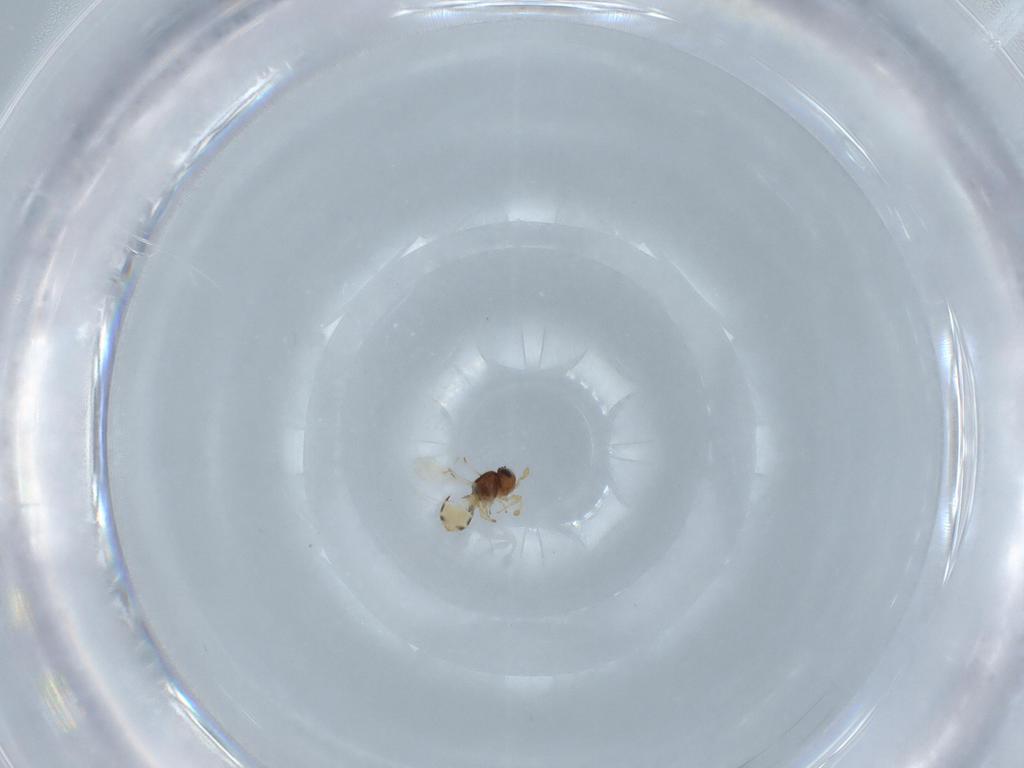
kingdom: Animalia
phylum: Arthropoda
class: Insecta
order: Hymenoptera
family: Scelionidae
